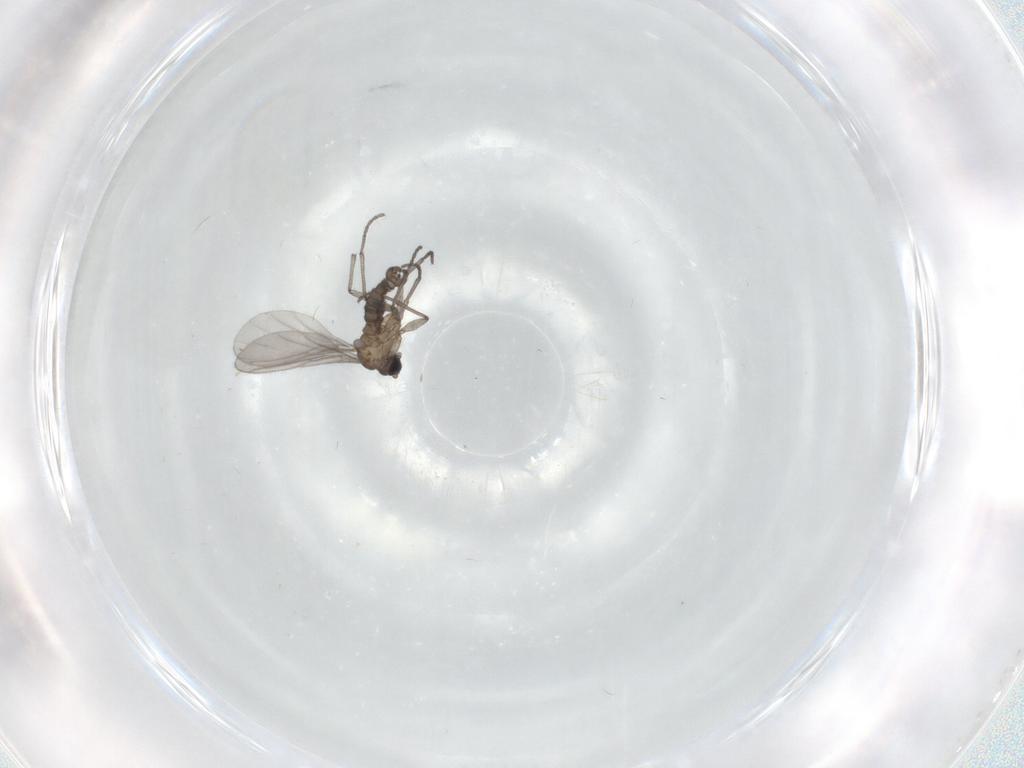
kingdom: Animalia
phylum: Arthropoda
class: Insecta
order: Diptera
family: Sciaridae
